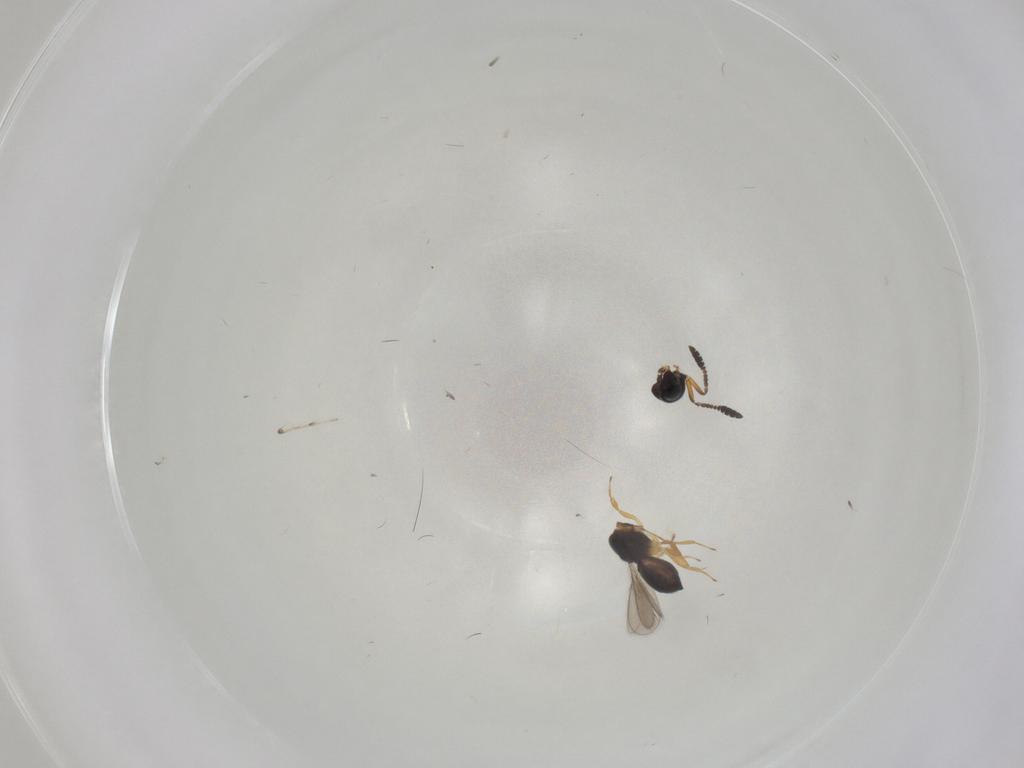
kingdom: Animalia
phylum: Arthropoda
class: Insecta
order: Hymenoptera
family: Scelionidae
